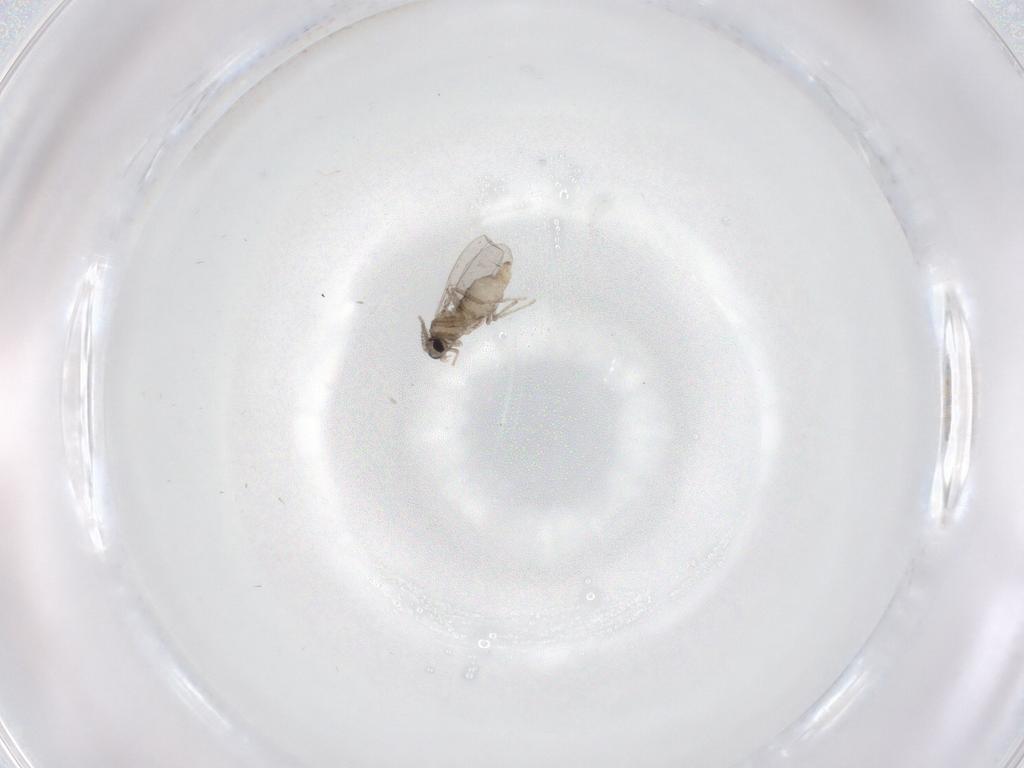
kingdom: Animalia
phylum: Arthropoda
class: Insecta
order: Diptera
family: Cecidomyiidae
